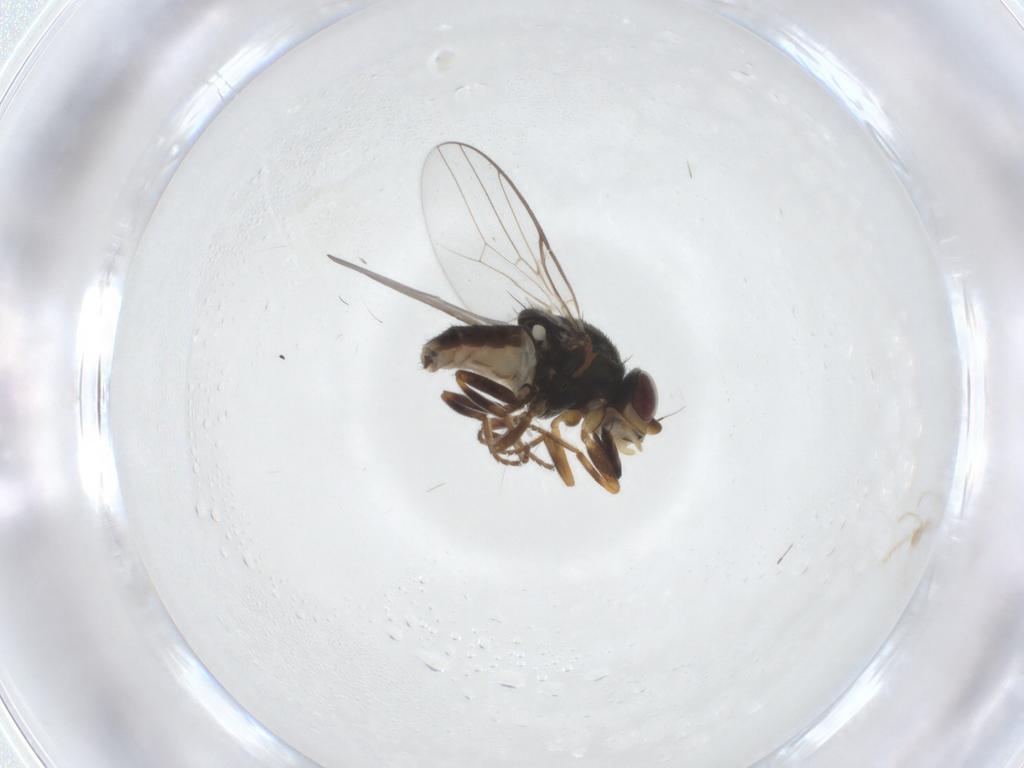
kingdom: Animalia
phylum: Arthropoda
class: Insecta
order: Diptera
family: Chloropidae
